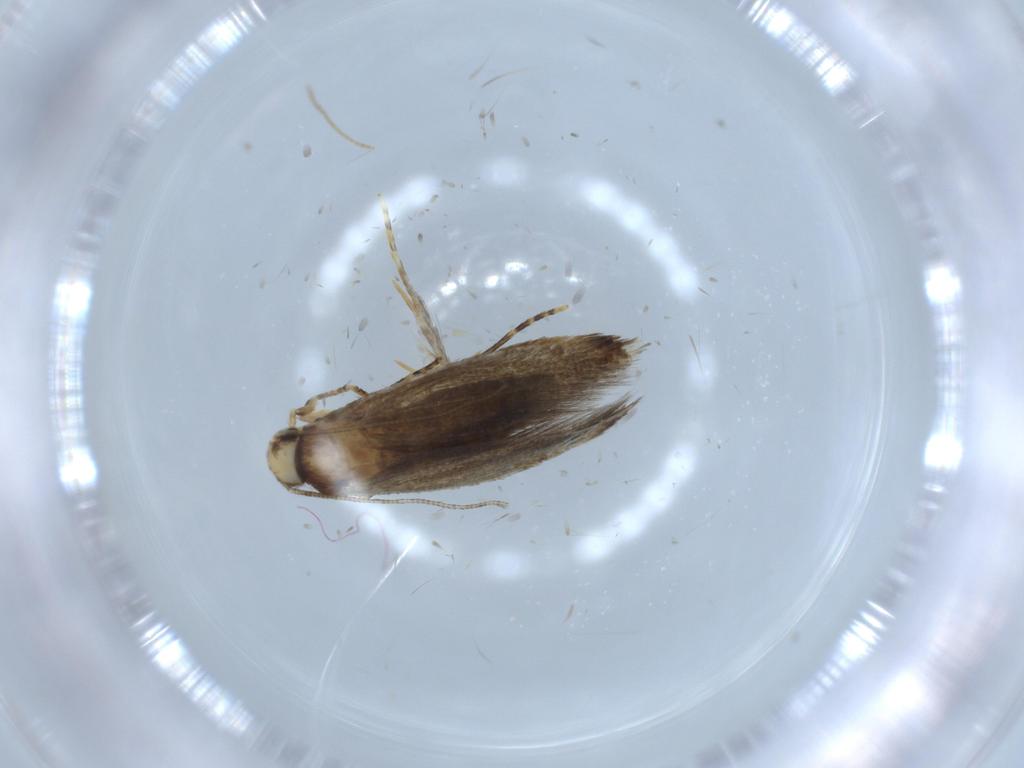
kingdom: Animalia
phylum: Arthropoda
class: Insecta
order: Lepidoptera
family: Tineidae
